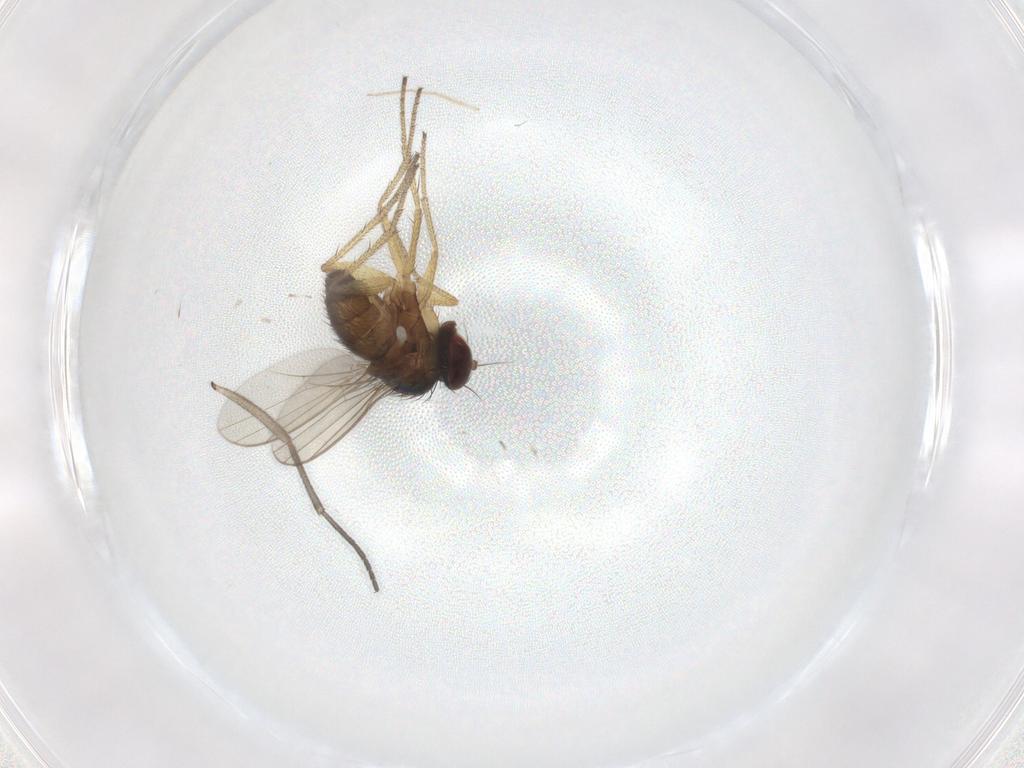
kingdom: Animalia
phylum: Arthropoda
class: Insecta
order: Diptera
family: Sciaridae
